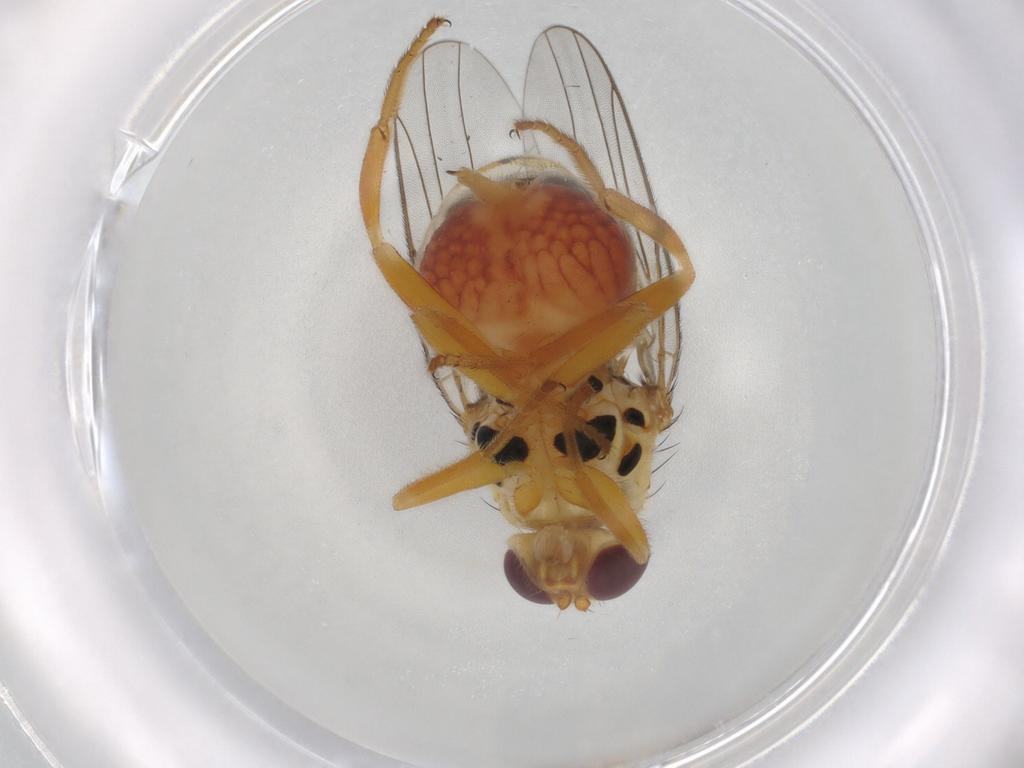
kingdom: Animalia
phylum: Arthropoda
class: Insecta
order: Diptera
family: Chloropidae
